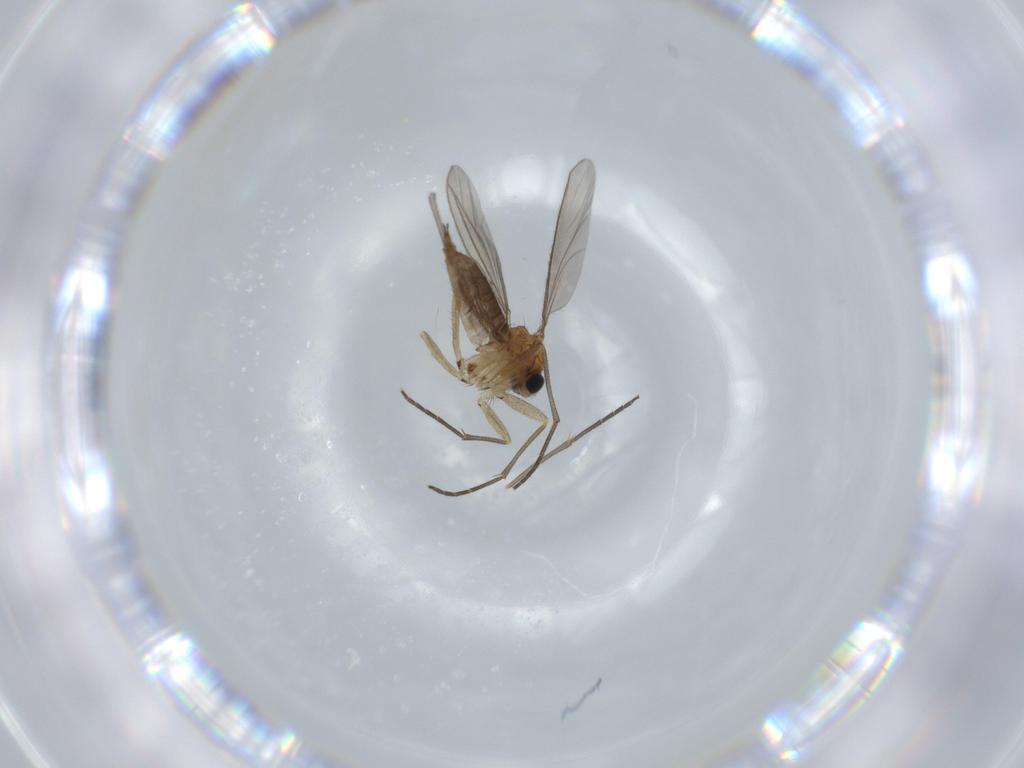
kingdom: Animalia
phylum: Arthropoda
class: Insecta
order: Diptera
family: Sciaridae
